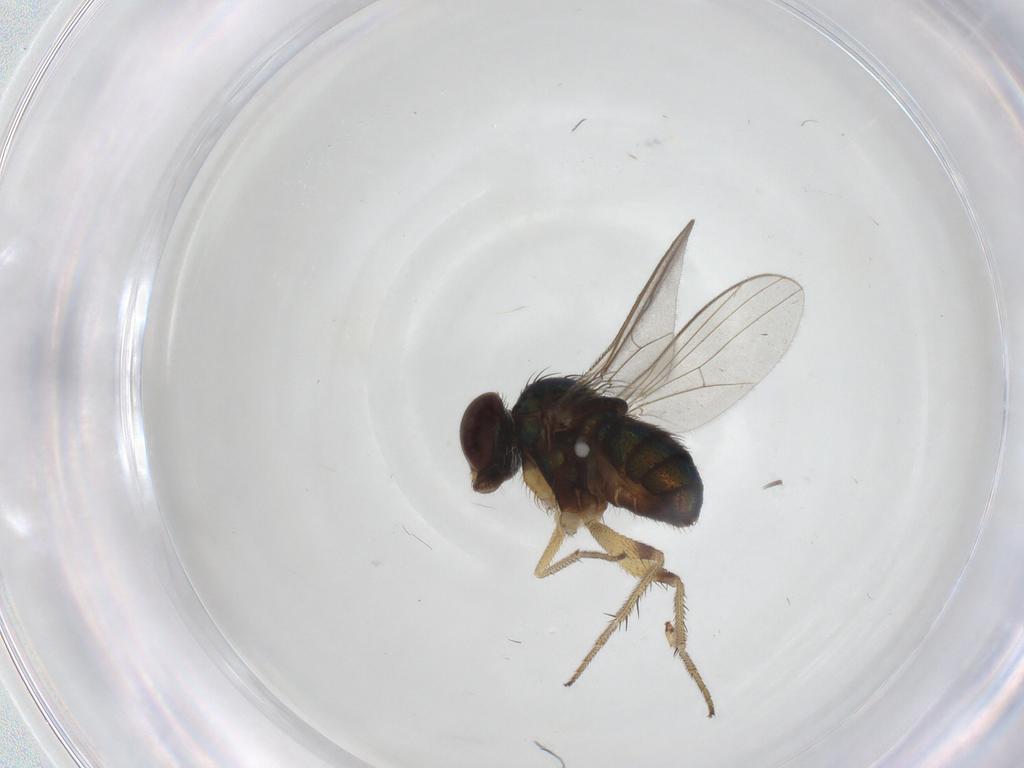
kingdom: Animalia
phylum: Arthropoda
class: Insecta
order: Diptera
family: Dolichopodidae
